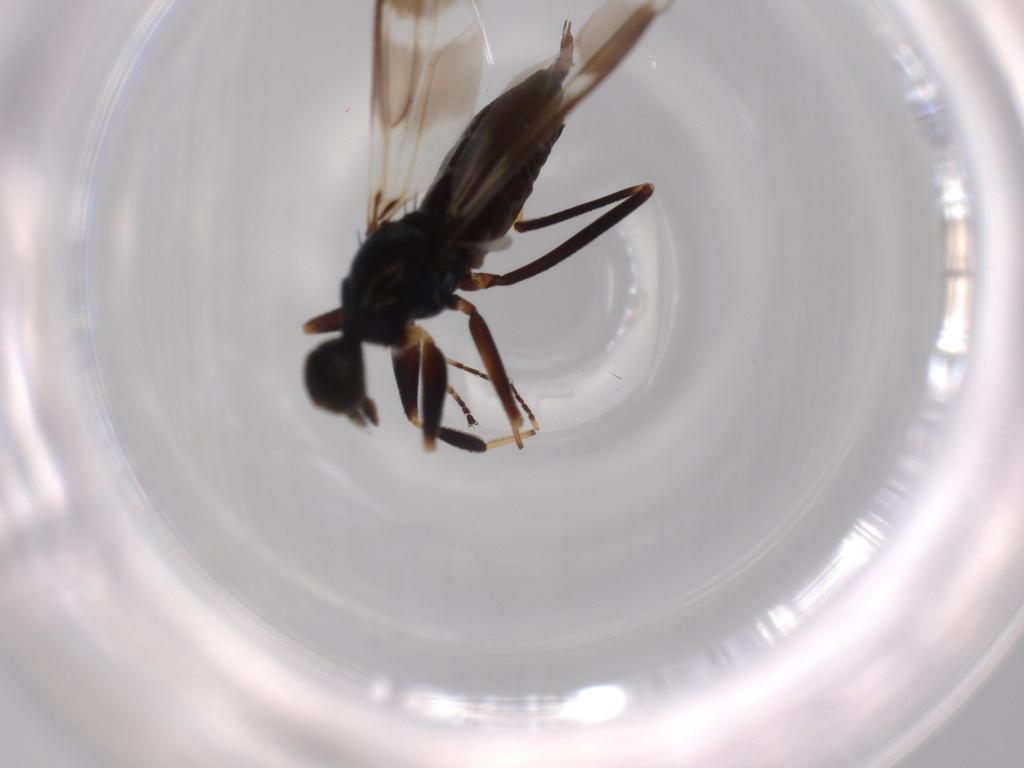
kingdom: Animalia
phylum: Arthropoda
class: Insecta
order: Diptera
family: Hybotidae
